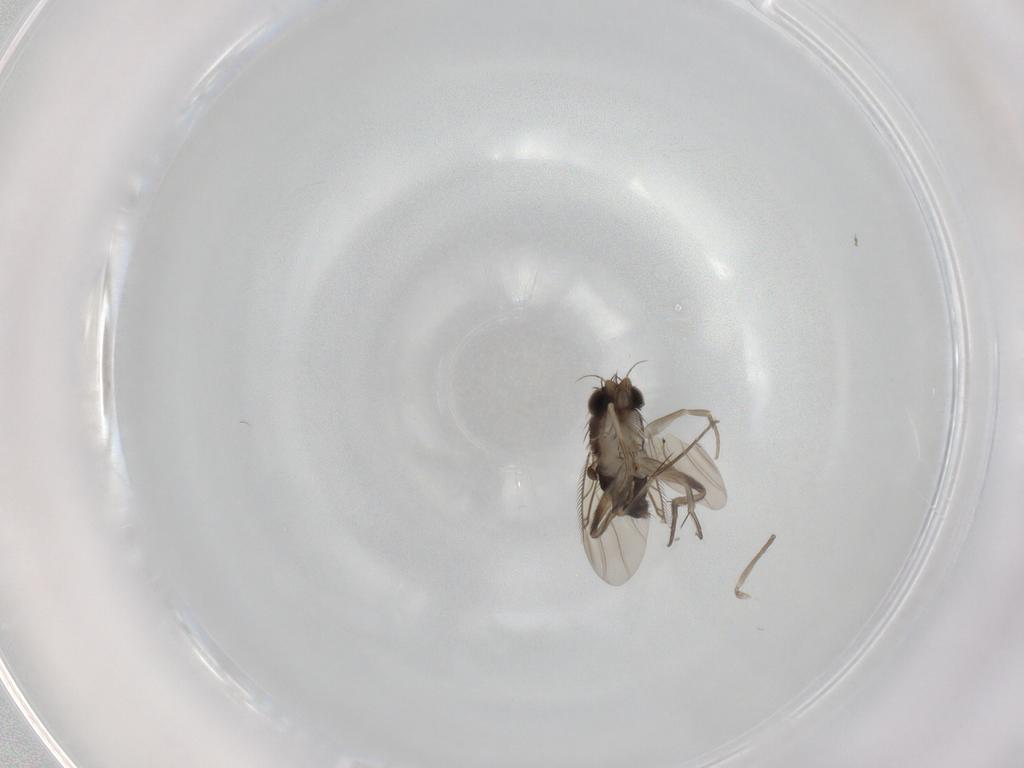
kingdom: Animalia
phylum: Arthropoda
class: Insecta
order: Diptera
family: Phoridae
